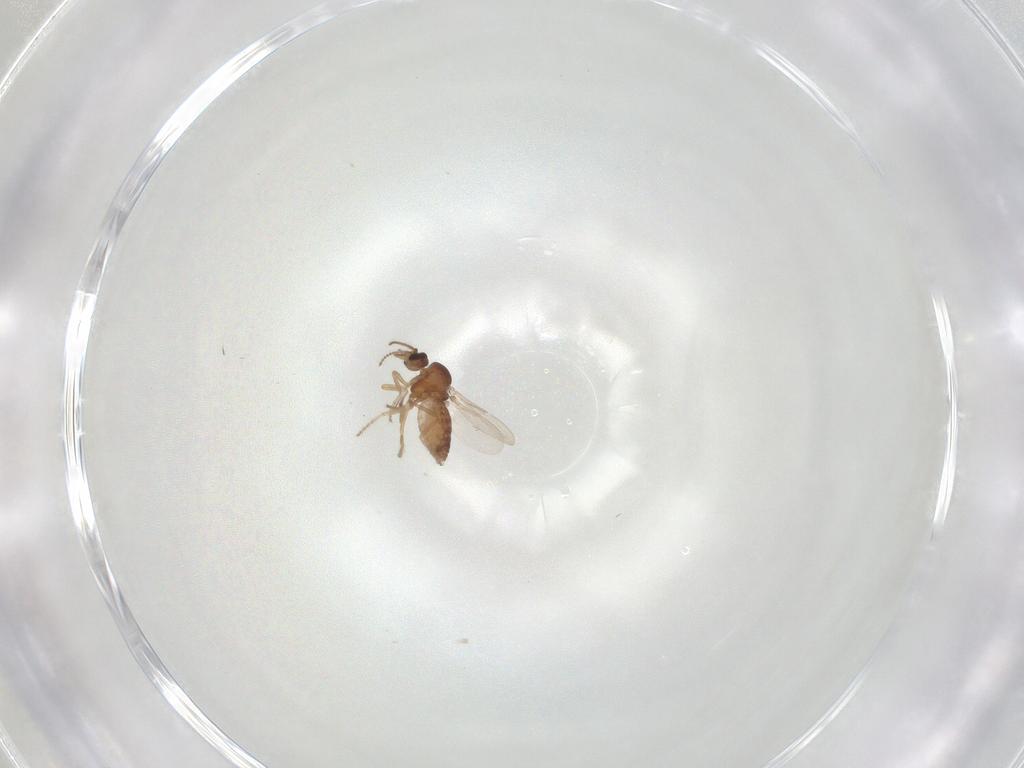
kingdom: Animalia
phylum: Arthropoda
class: Insecta
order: Diptera
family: Ceratopogonidae
